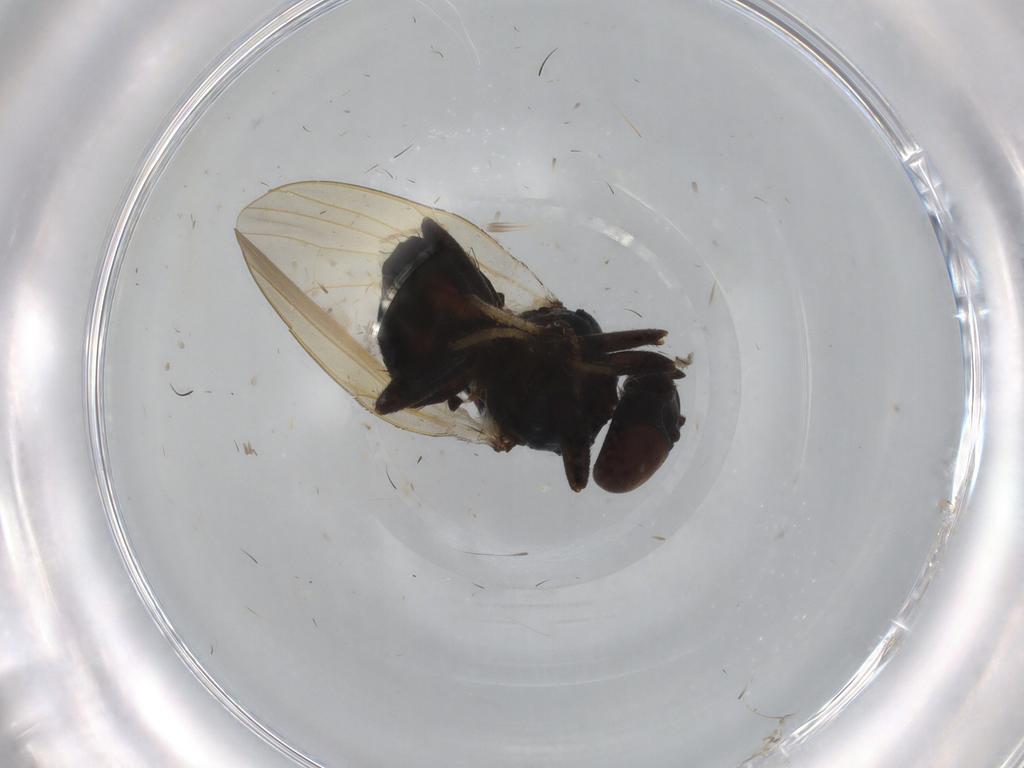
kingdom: Animalia
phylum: Arthropoda
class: Insecta
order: Diptera
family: Lonchaeidae
